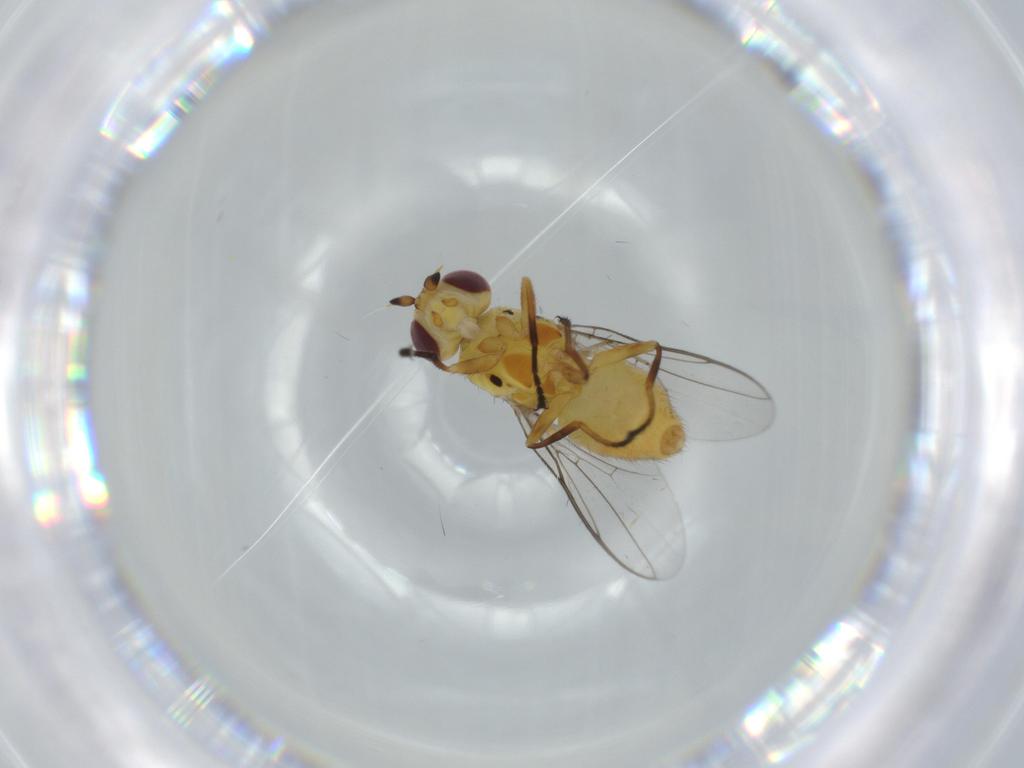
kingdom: Animalia
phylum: Arthropoda
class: Insecta
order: Diptera
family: Chloropidae
